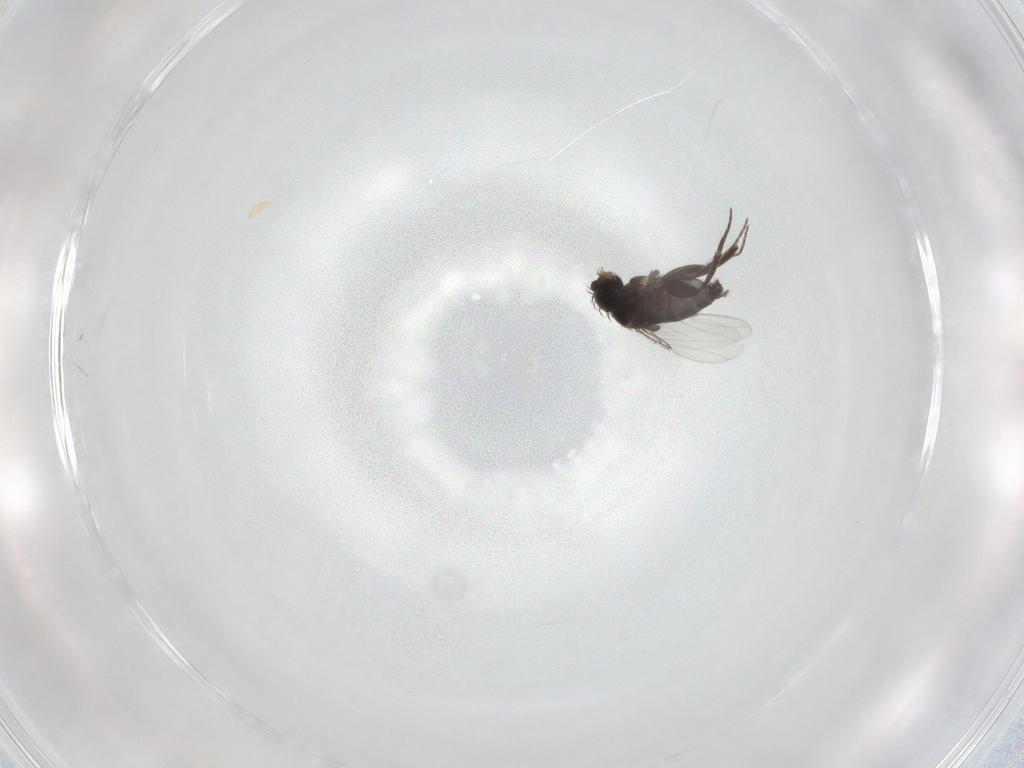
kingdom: Animalia
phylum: Arthropoda
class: Insecta
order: Diptera
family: Phoridae
